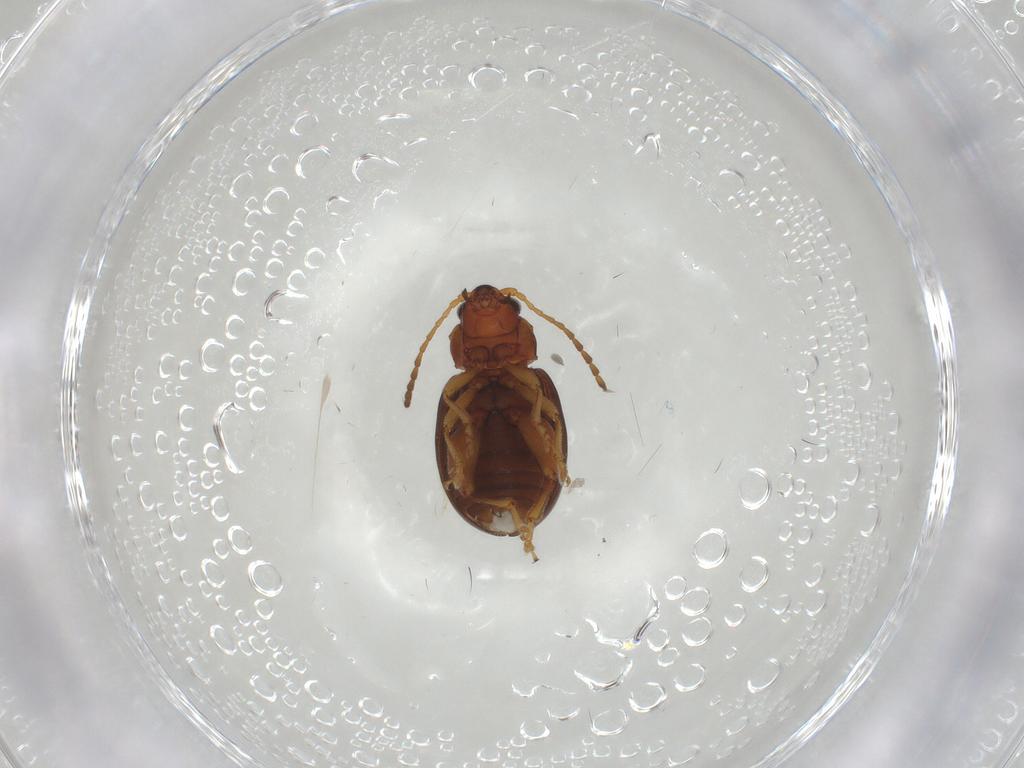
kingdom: Animalia
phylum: Arthropoda
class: Insecta
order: Coleoptera
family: Chrysomelidae
